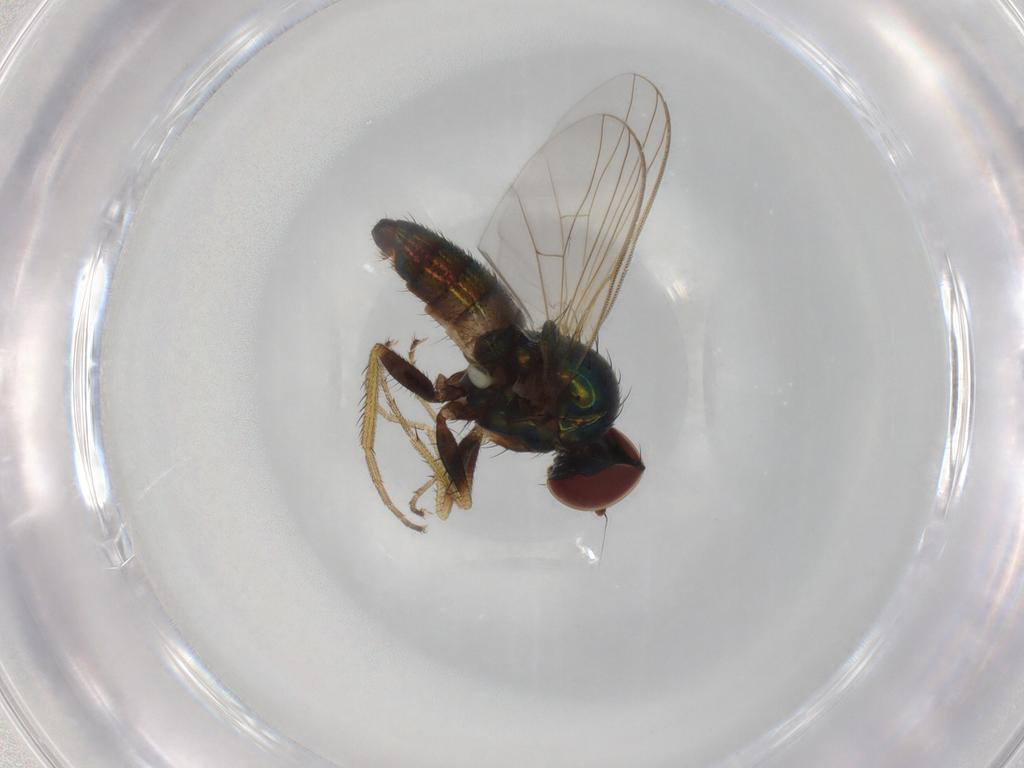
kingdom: Animalia
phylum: Arthropoda
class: Insecta
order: Diptera
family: Dolichopodidae
